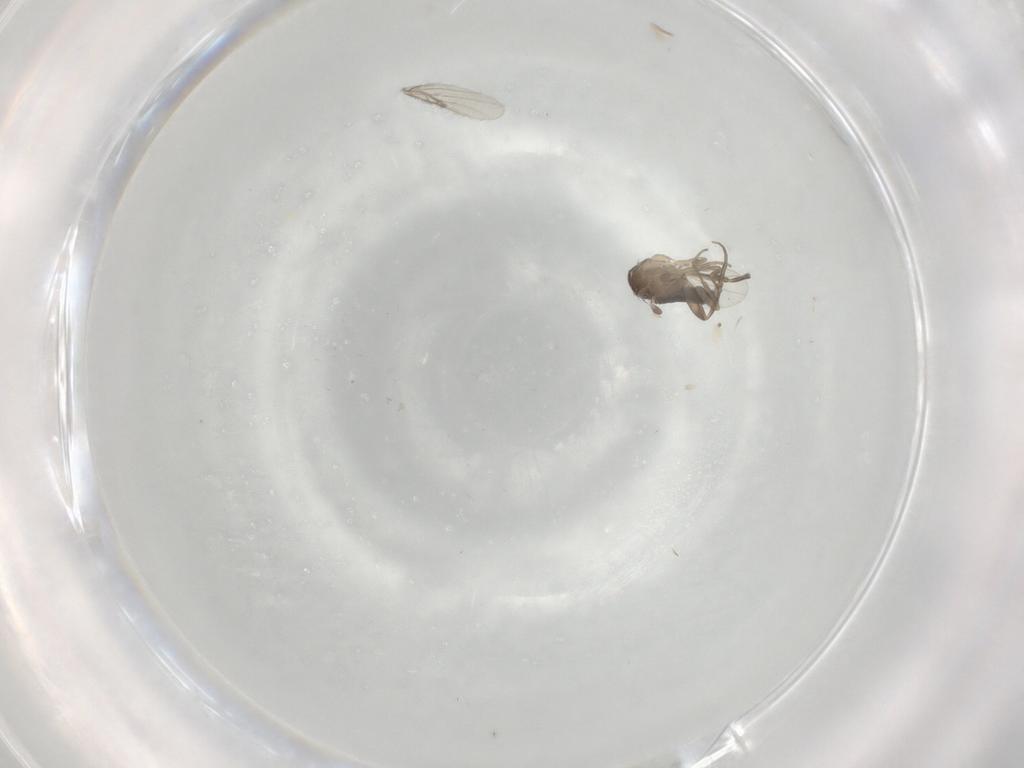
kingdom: Animalia
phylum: Arthropoda
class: Insecta
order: Diptera
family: Phoridae
